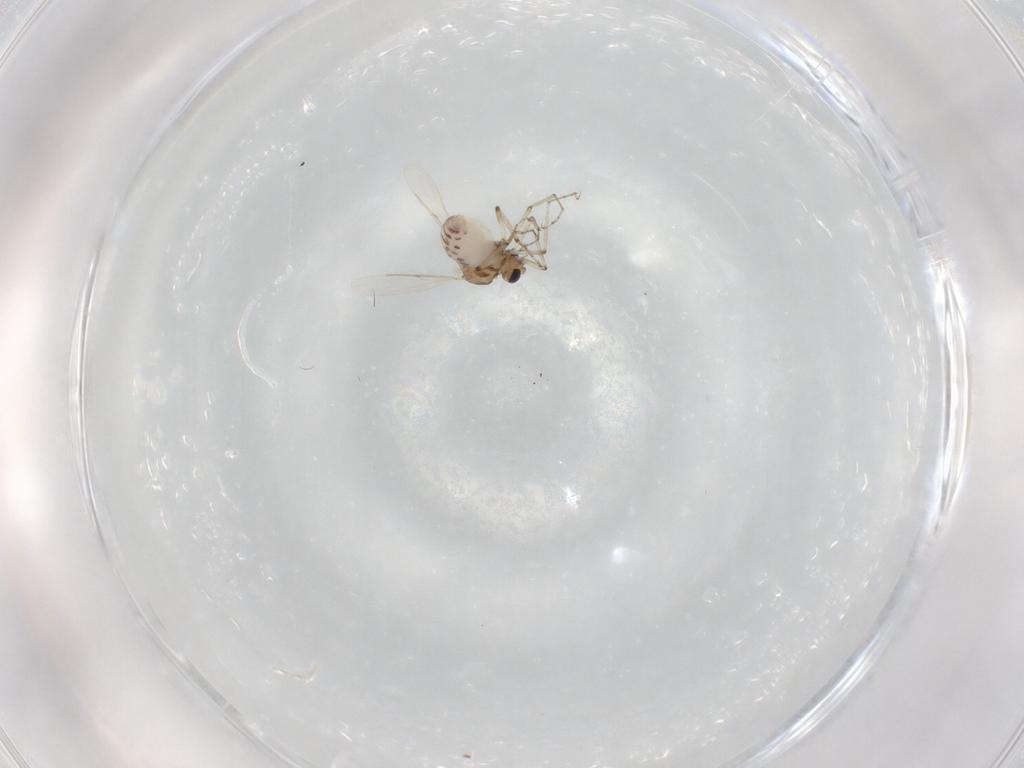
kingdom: Animalia
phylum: Arthropoda
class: Insecta
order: Diptera
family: Ceratopogonidae
